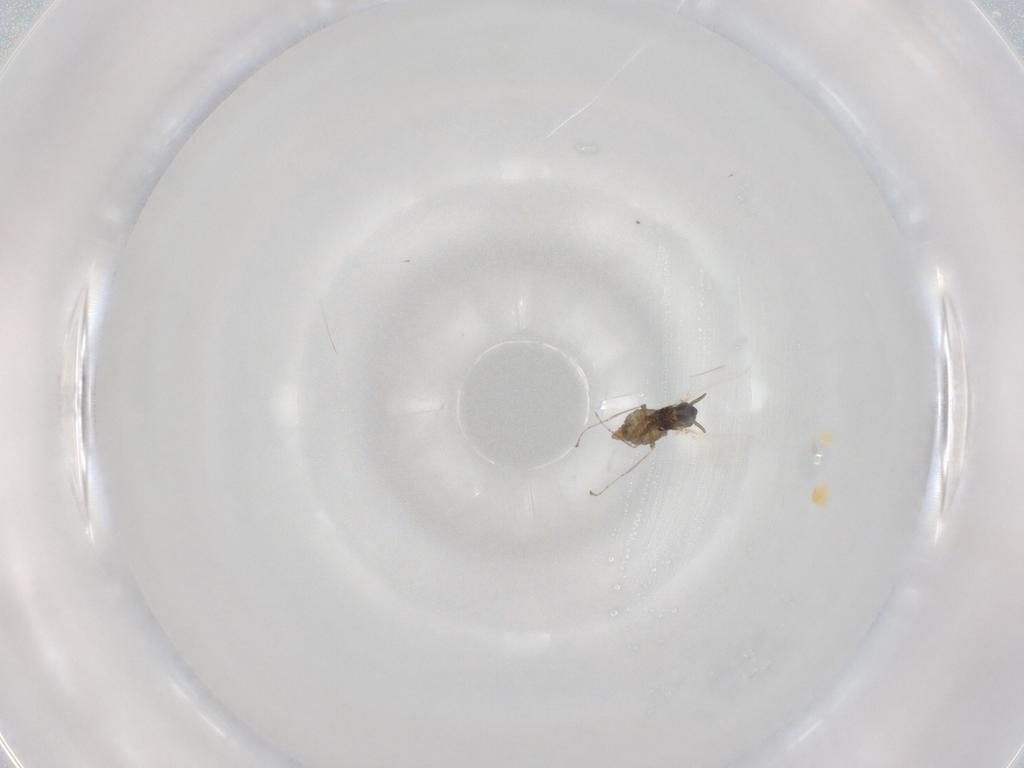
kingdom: Animalia
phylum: Arthropoda
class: Insecta
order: Diptera
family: Cecidomyiidae
